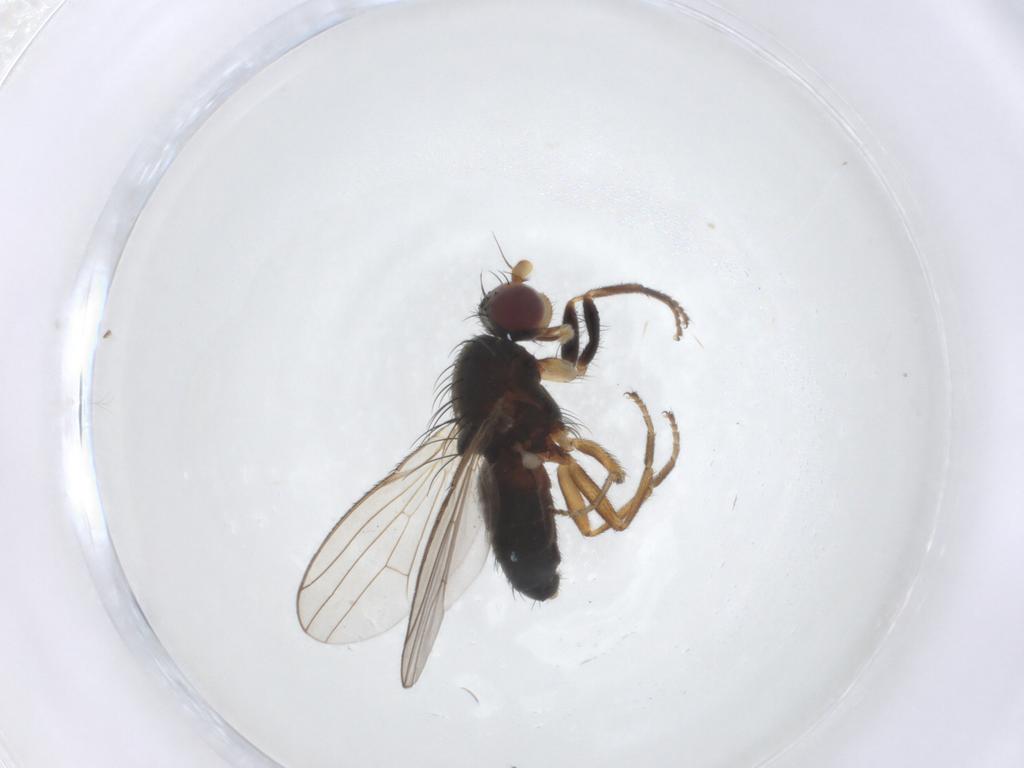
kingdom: Animalia
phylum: Arthropoda
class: Insecta
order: Diptera
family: Heleomyzidae
